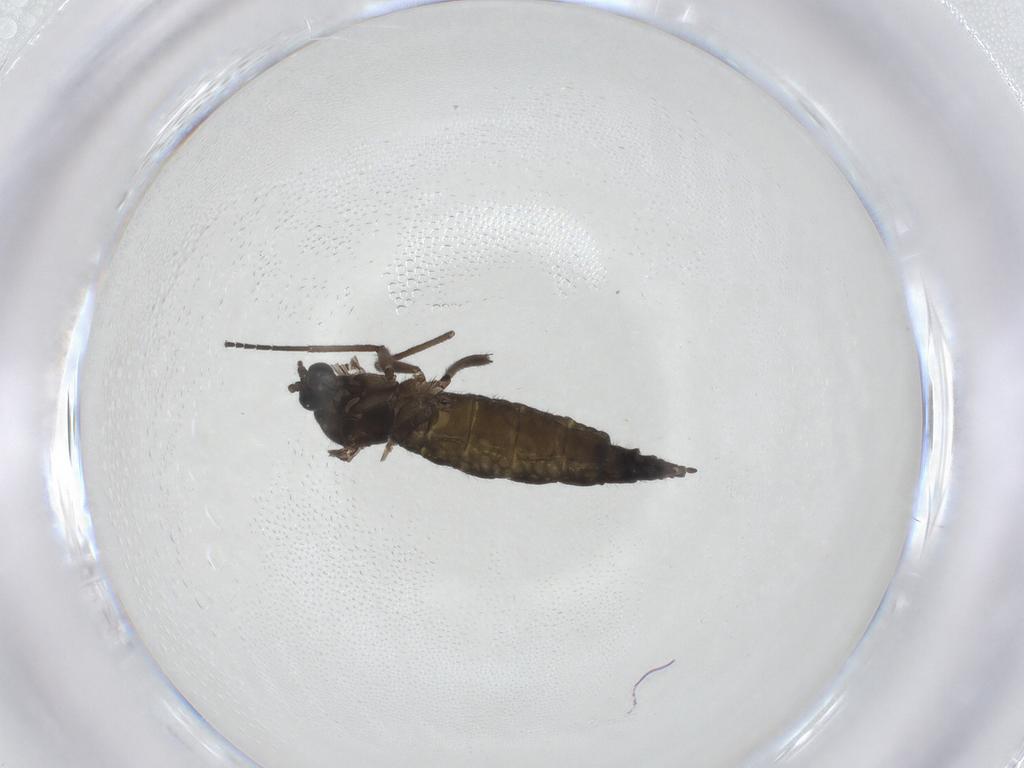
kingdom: Animalia
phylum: Arthropoda
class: Insecta
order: Diptera
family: Sciaridae
